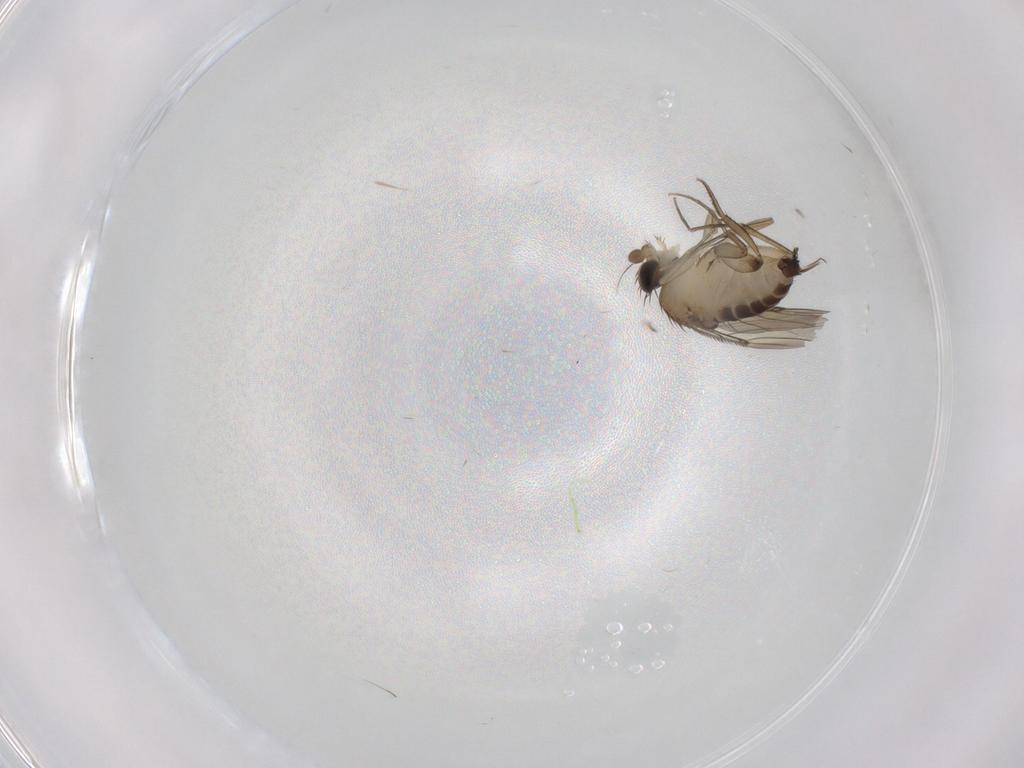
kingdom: Animalia
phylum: Arthropoda
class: Insecta
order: Diptera
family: Phoridae
